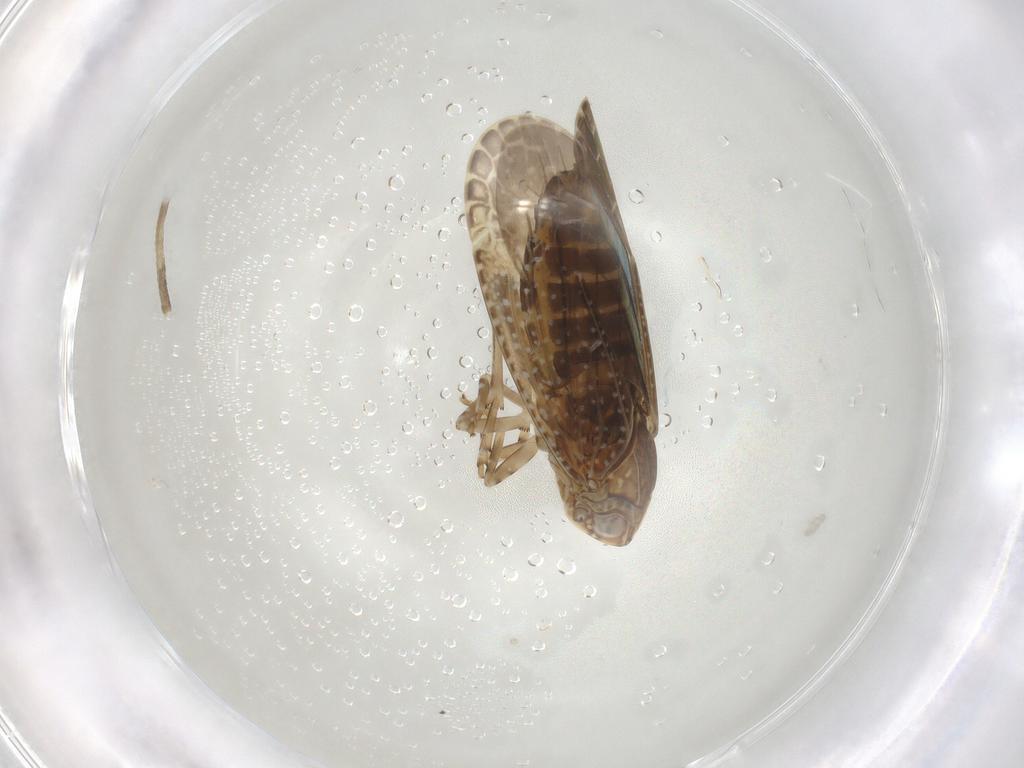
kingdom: Animalia
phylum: Arthropoda
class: Insecta
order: Hemiptera
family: Achilidae
